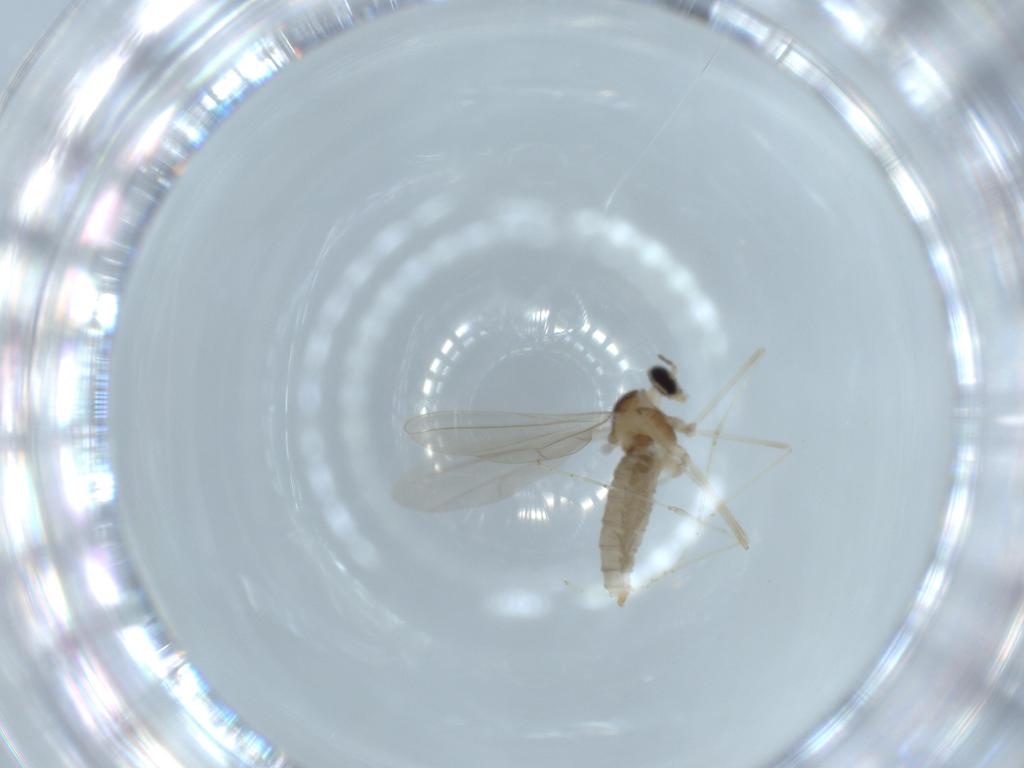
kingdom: Animalia
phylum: Arthropoda
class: Insecta
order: Diptera
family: Cecidomyiidae
